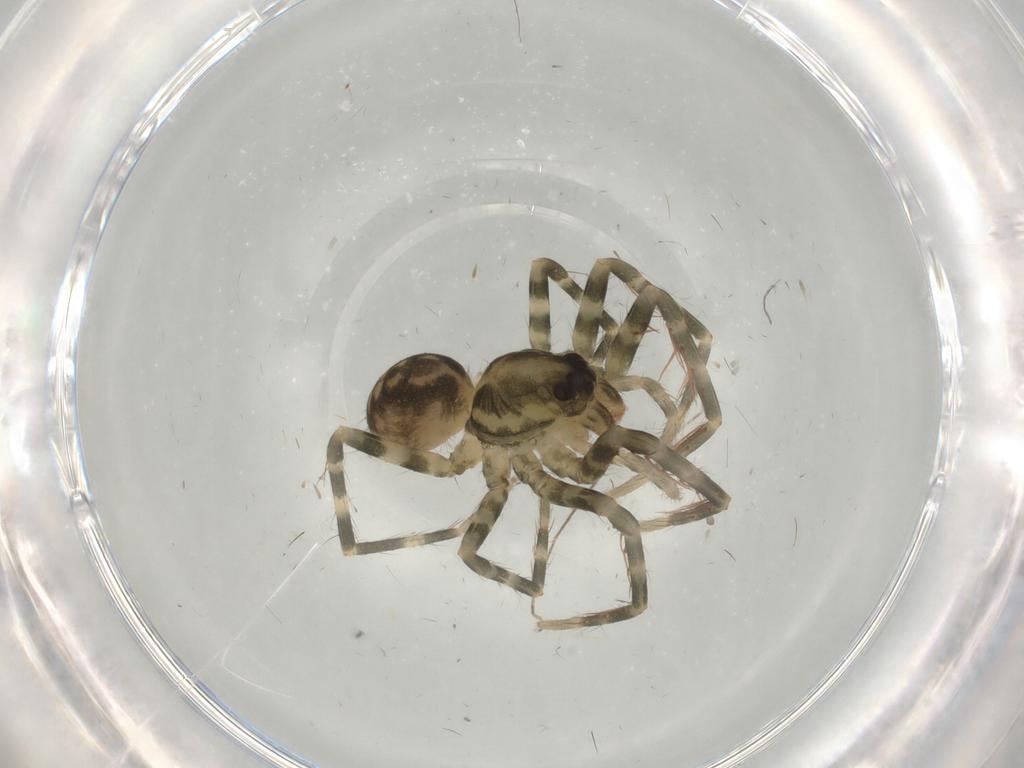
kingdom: Animalia
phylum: Arthropoda
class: Arachnida
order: Araneae
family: Ctenidae
